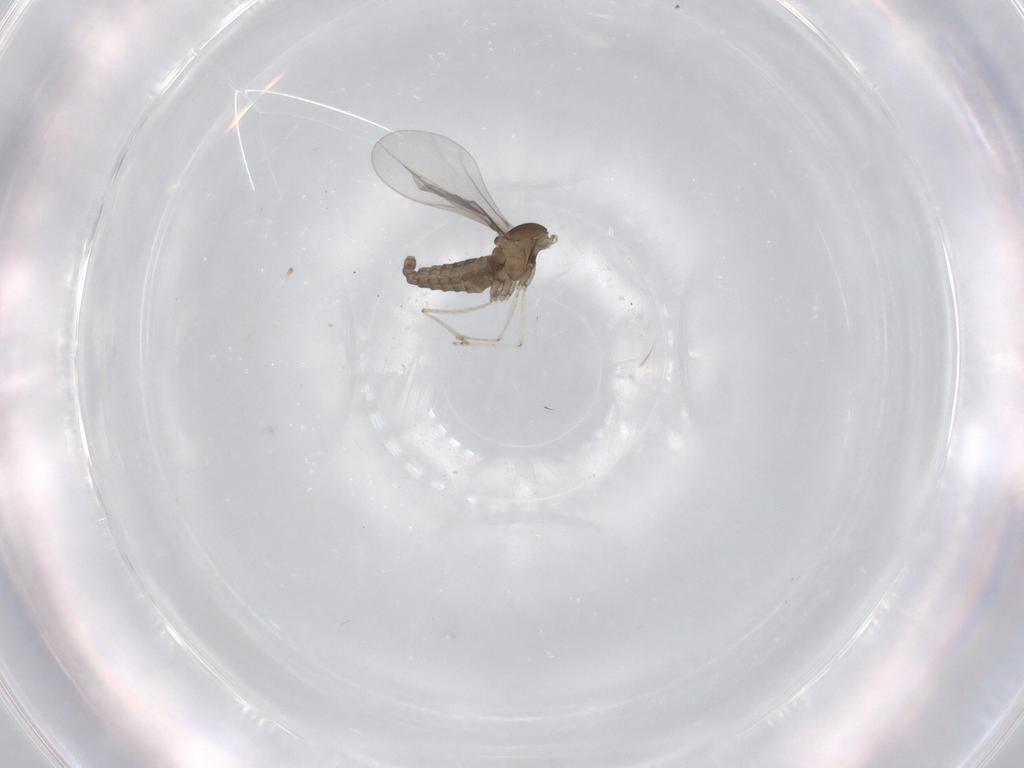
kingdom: Animalia
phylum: Arthropoda
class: Insecta
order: Diptera
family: Cecidomyiidae
